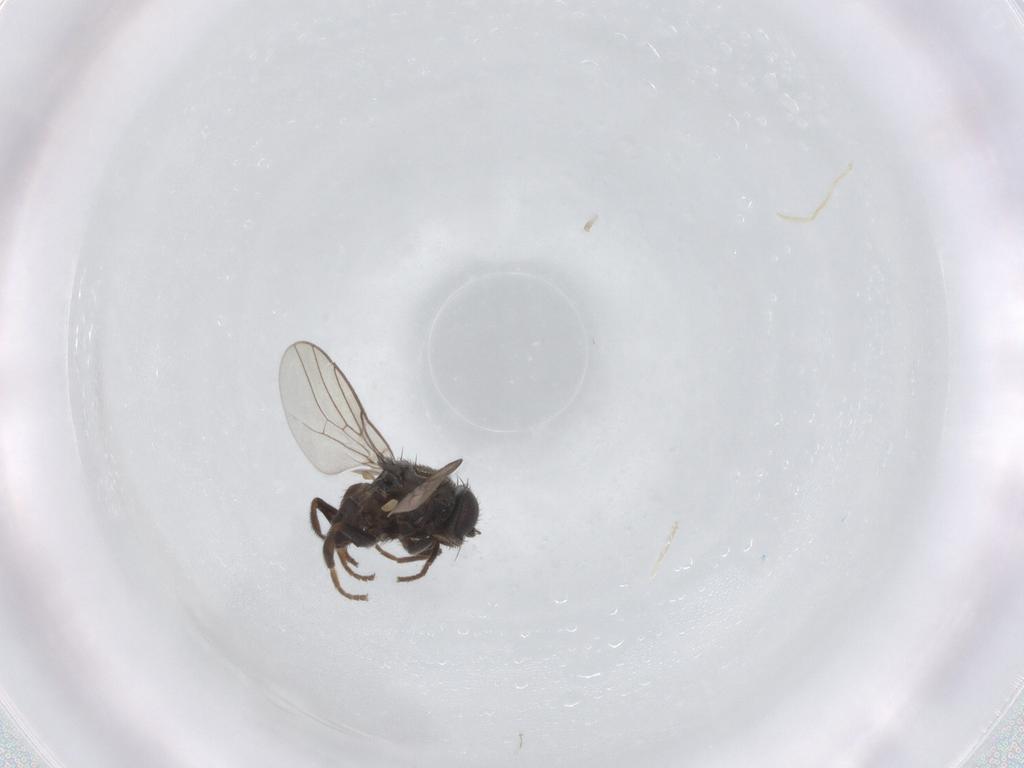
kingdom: Animalia
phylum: Arthropoda
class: Insecta
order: Diptera
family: Chloropidae
